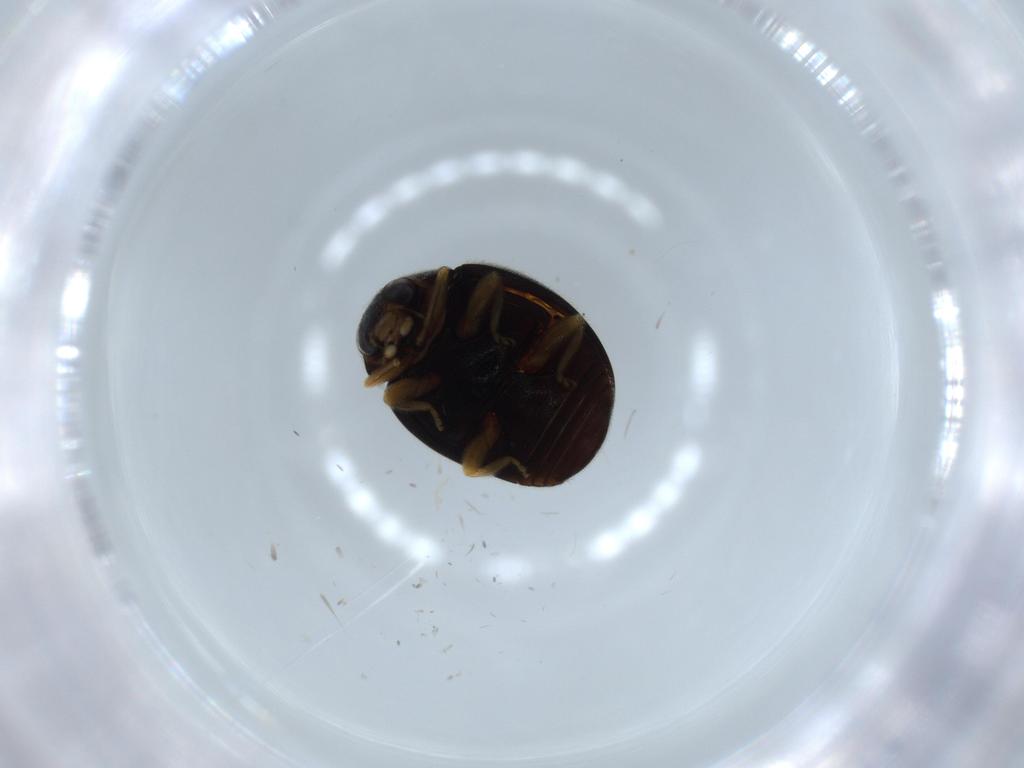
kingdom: Animalia
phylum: Arthropoda
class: Insecta
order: Coleoptera
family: Coccinellidae
